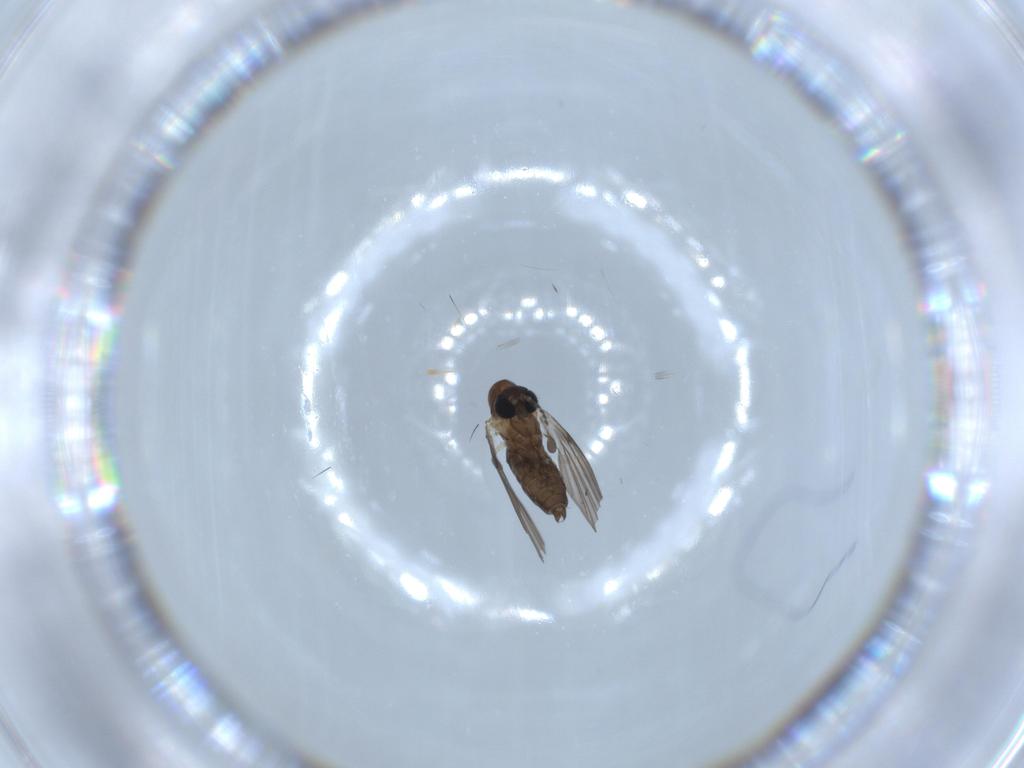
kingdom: Animalia
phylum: Arthropoda
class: Insecta
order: Diptera
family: Psychodidae
